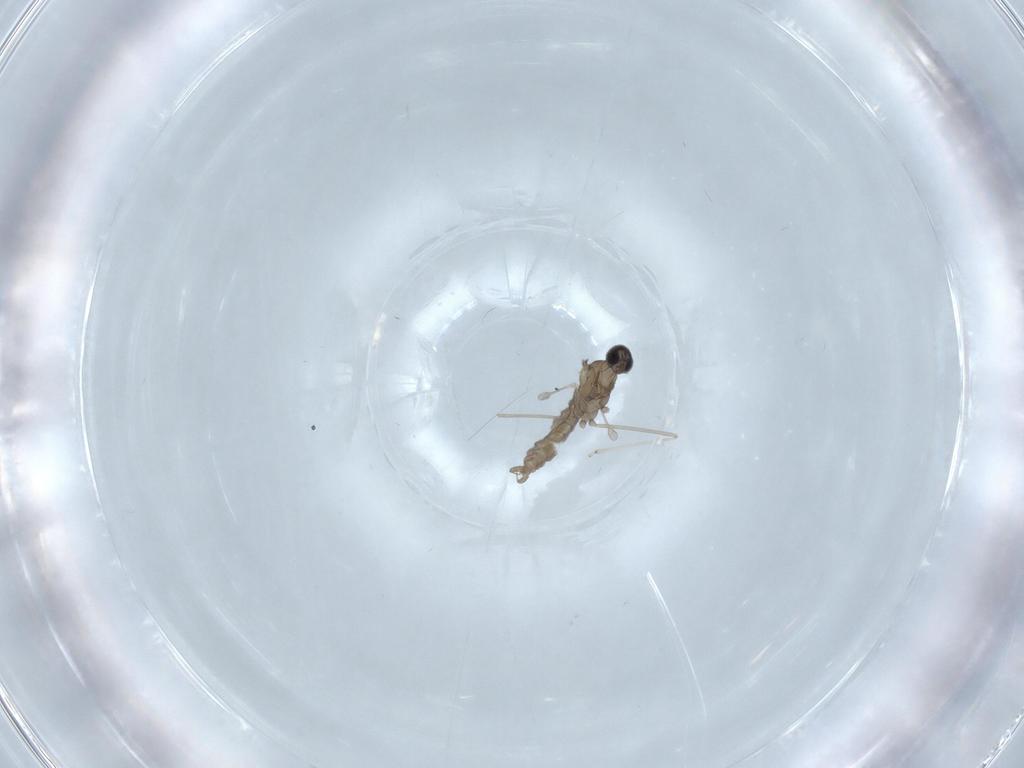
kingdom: Animalia
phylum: Arthropoda
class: Insecta
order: Diptera
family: Cecidomyiidae
